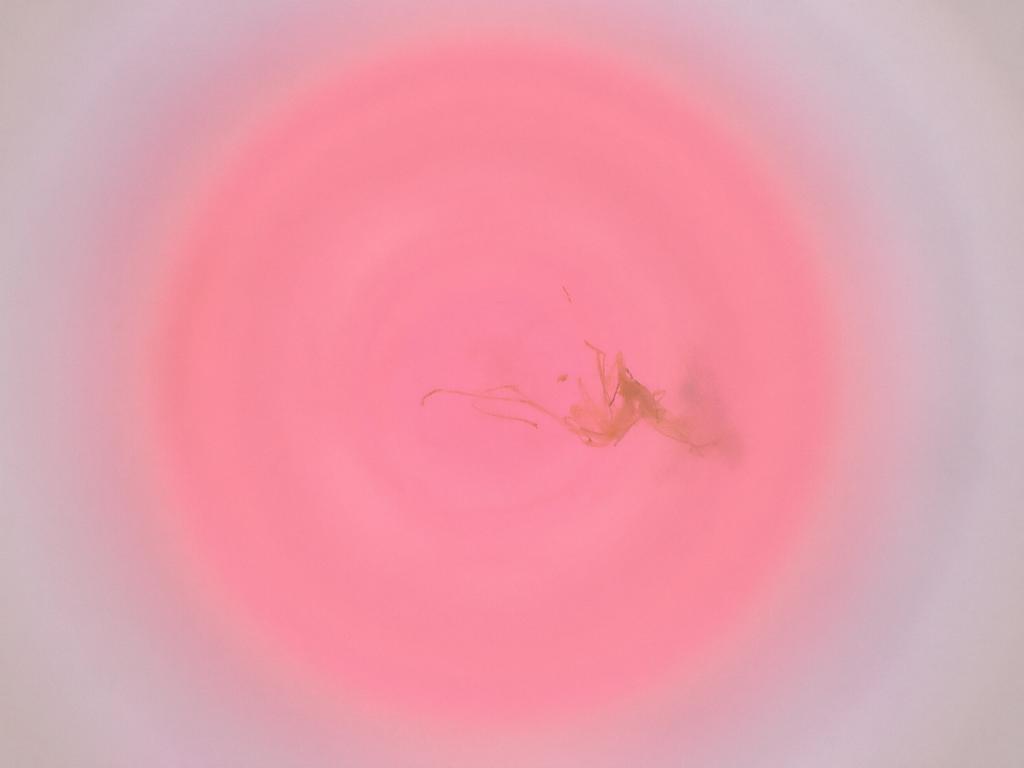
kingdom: Animalia
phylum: Arthropoda
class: Insecta
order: Diptera
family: Cecidomyiidae
